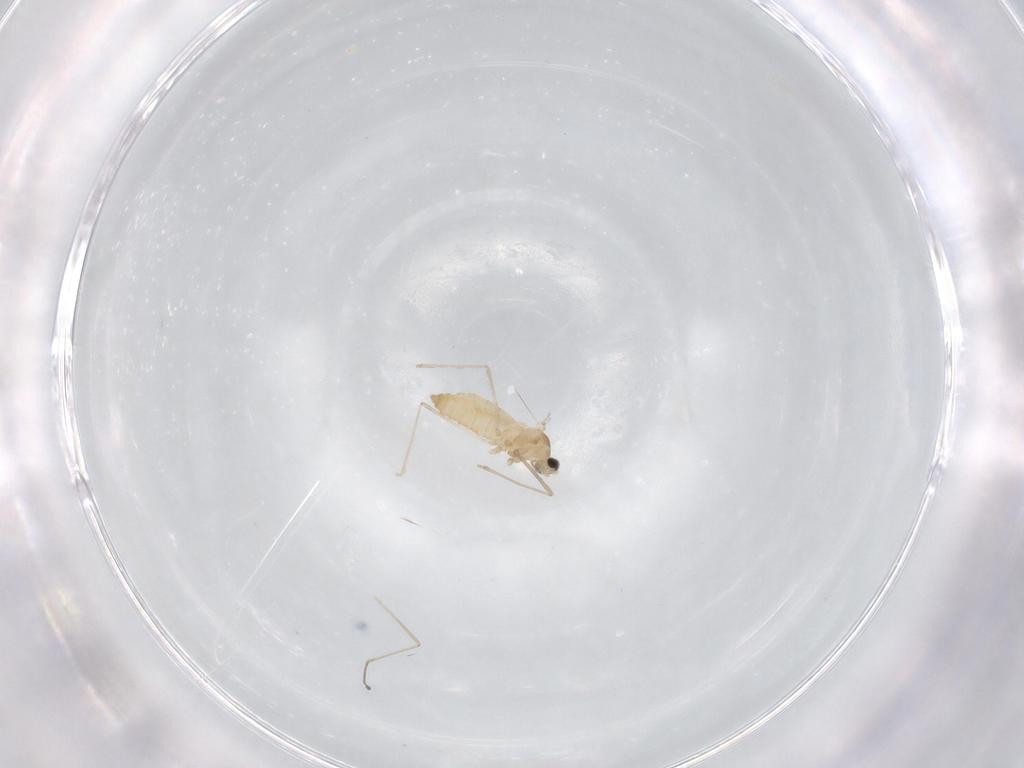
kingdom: Animalia
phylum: Arthropoda
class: Insecta
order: Diptera
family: Cecidomyiidae
